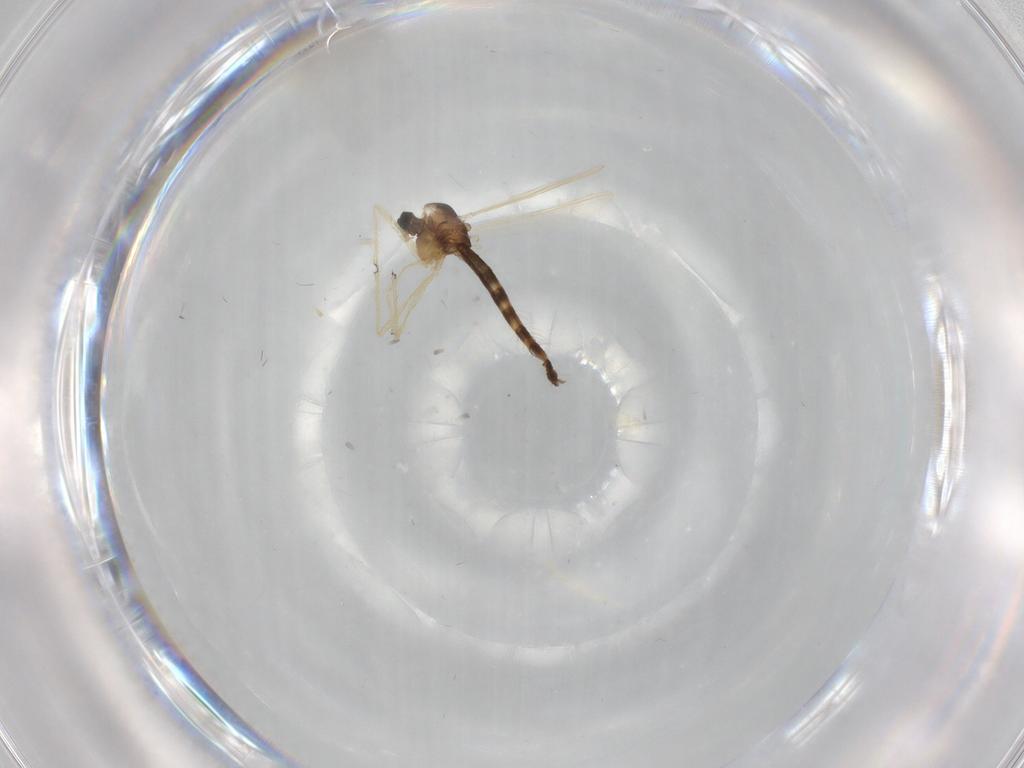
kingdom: Animalia
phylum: Arthropoda
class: Insecta
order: Diptera
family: Chironomidae
